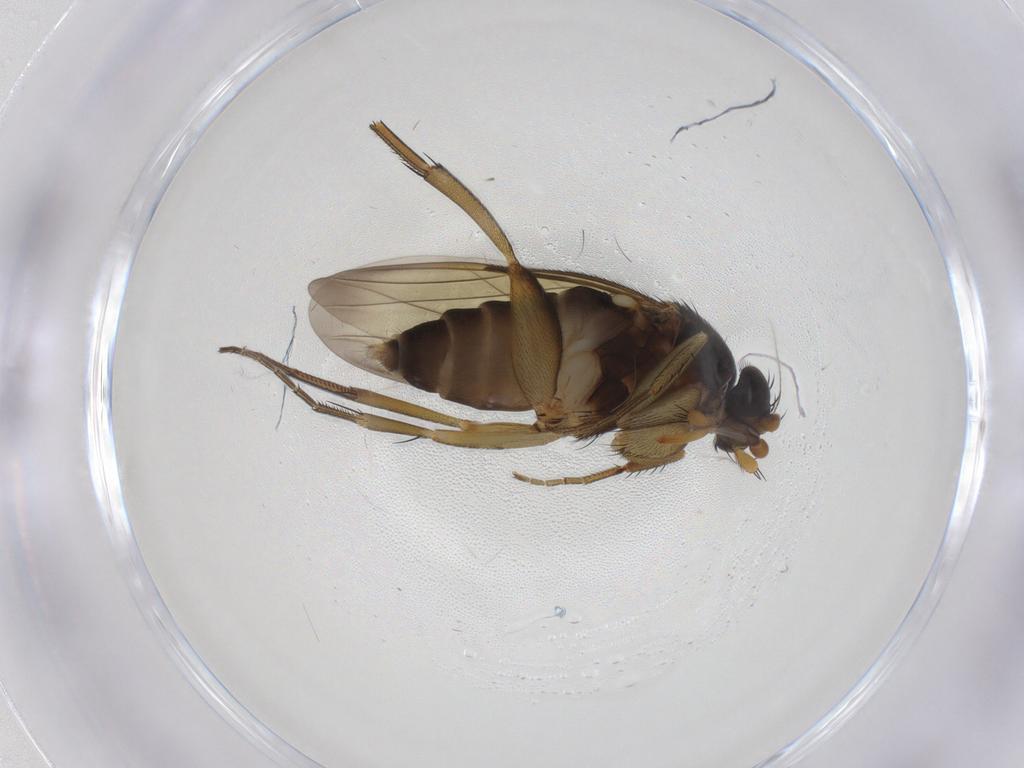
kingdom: Animalia
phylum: Arthropoda
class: Insecta
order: Diptera
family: Phoridae
